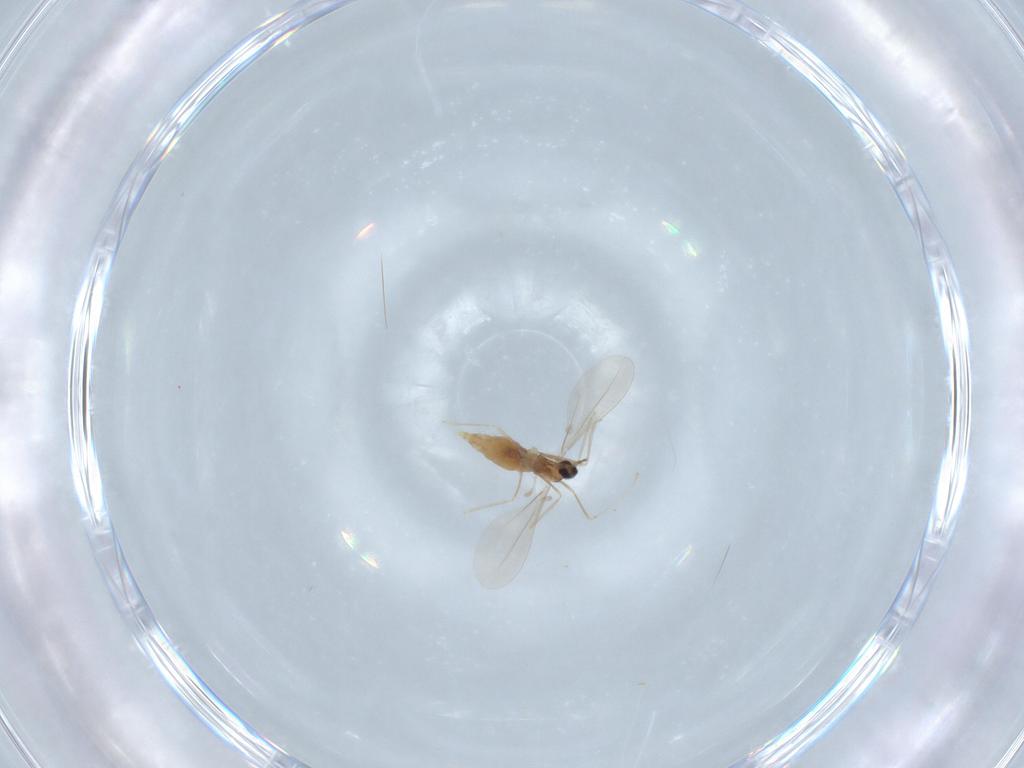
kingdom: Animalia
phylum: Arthropoda
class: Insecta
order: Diptera
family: Cecidomyiidae
